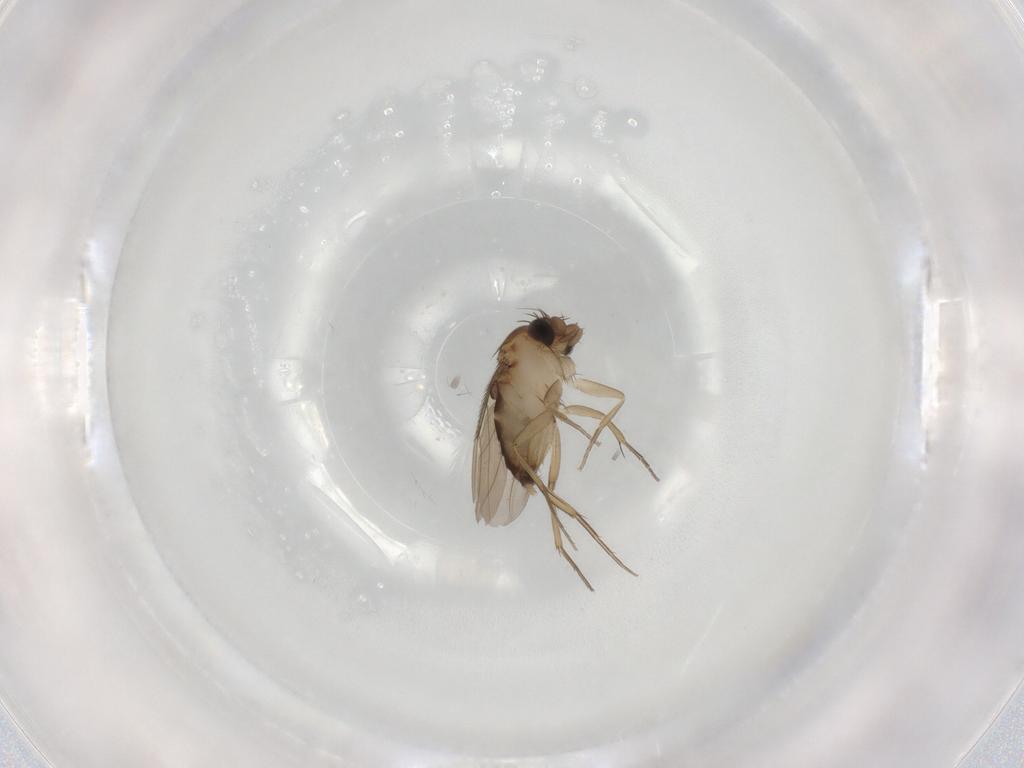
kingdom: Animalia
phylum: Arthropoda
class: Insecta
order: Diptera
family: Phoridae
